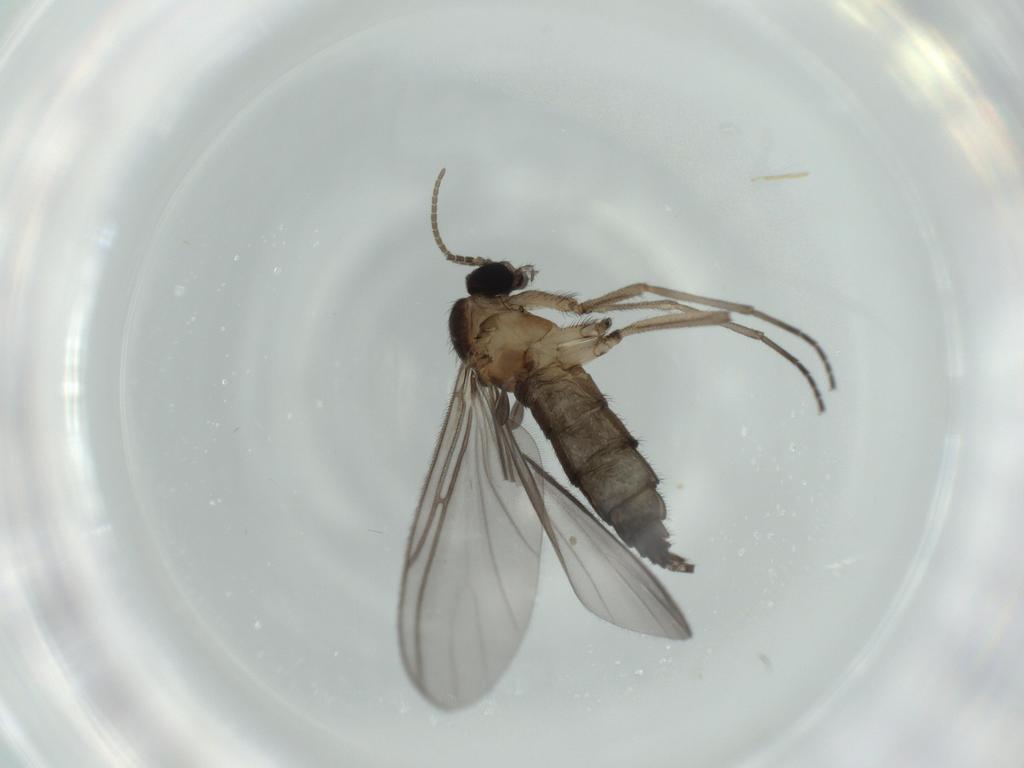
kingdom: Animalia
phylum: Arthropoda
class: Insecta
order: Diptera
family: Sciaridae
